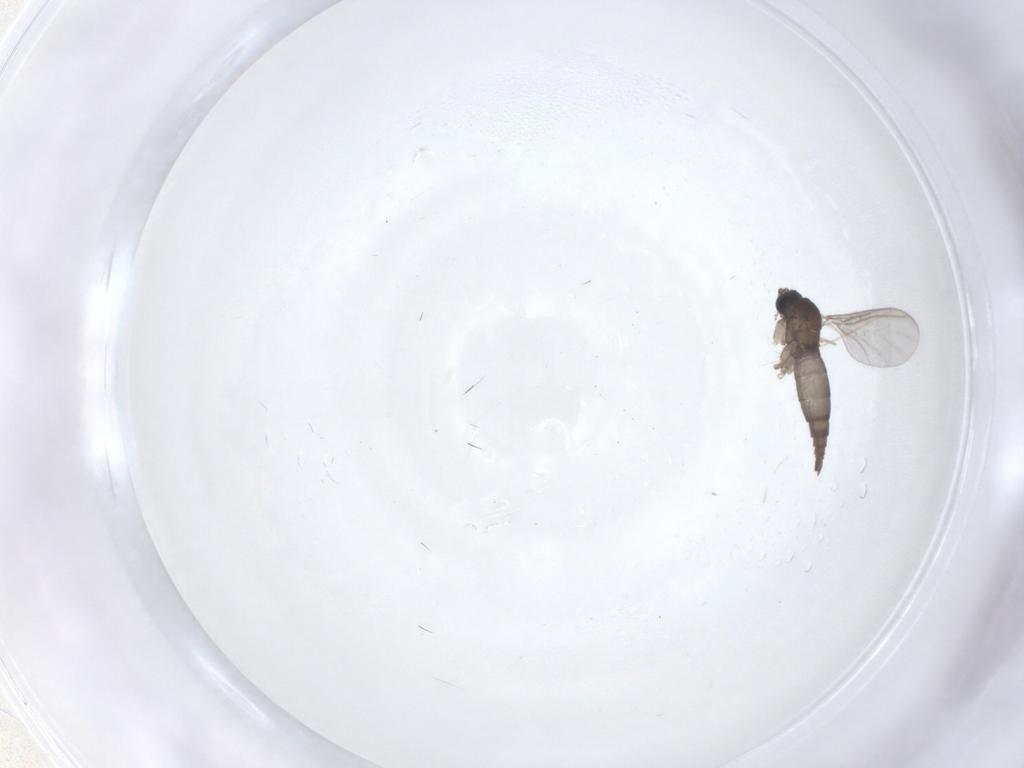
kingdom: Animalia
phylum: Arthropoda
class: Insecta
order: Diptera
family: Sciaridae
